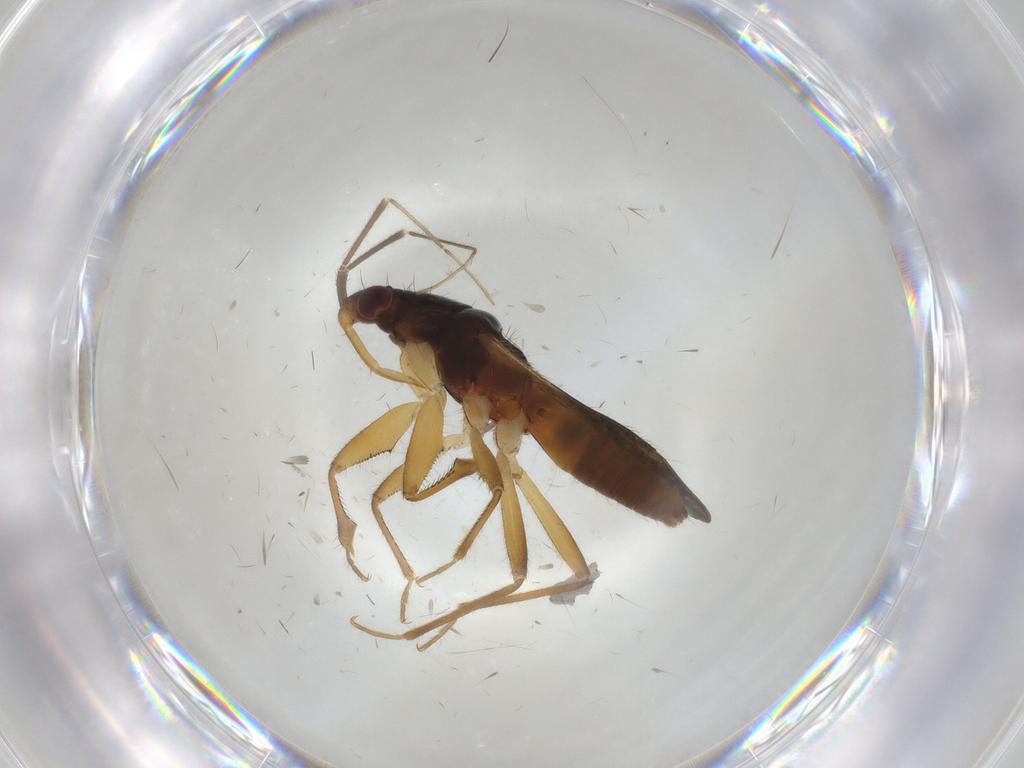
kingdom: Animalia
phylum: Arthropoda
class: Insecta
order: Hemiptera
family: Nabidae
